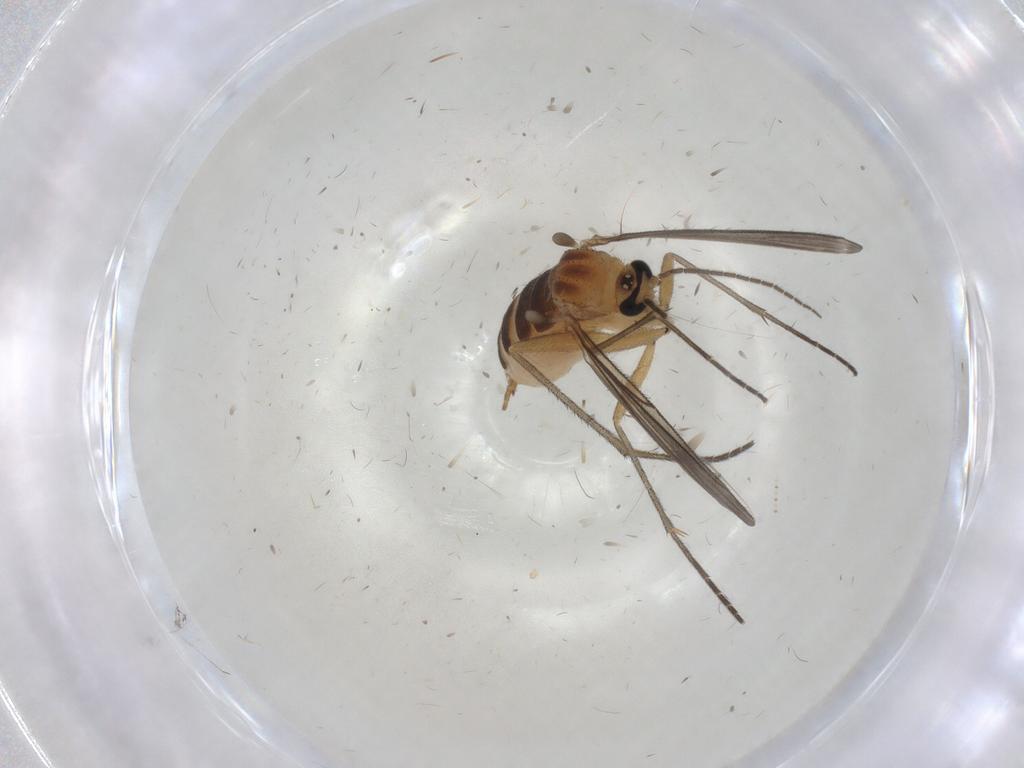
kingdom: Animalia
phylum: Arthropoda
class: Insecta
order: Diptera
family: Sciaridae
